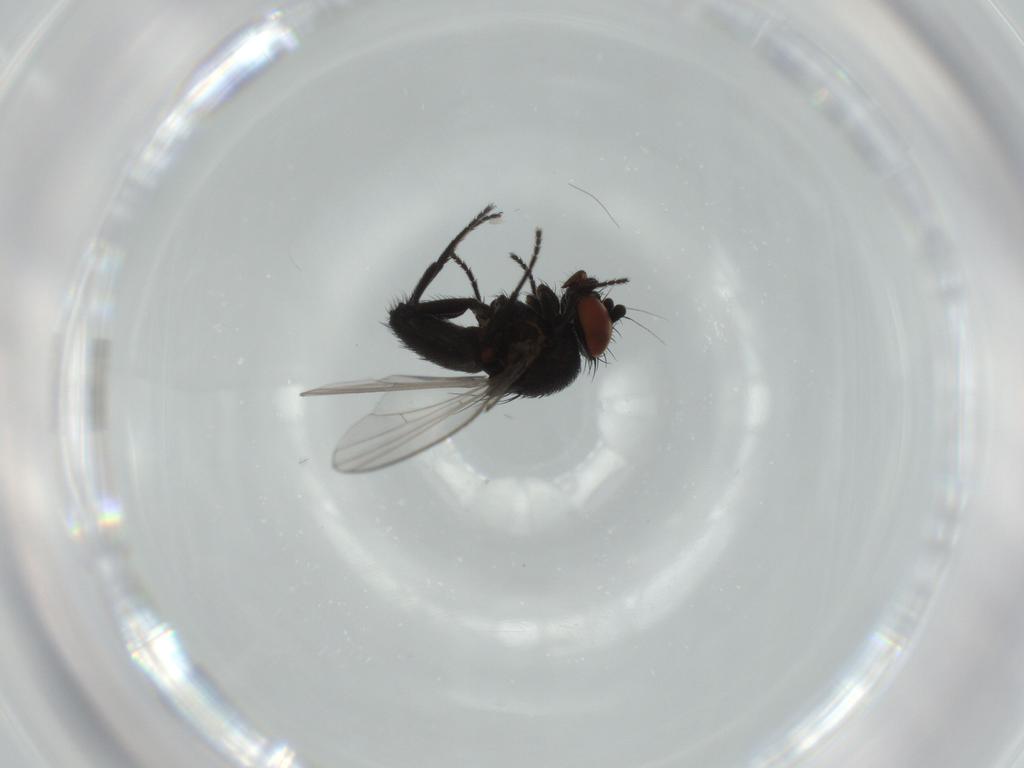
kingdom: Animalia
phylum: Arthropoda
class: Insecta
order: Diptera
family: Milichiidae
